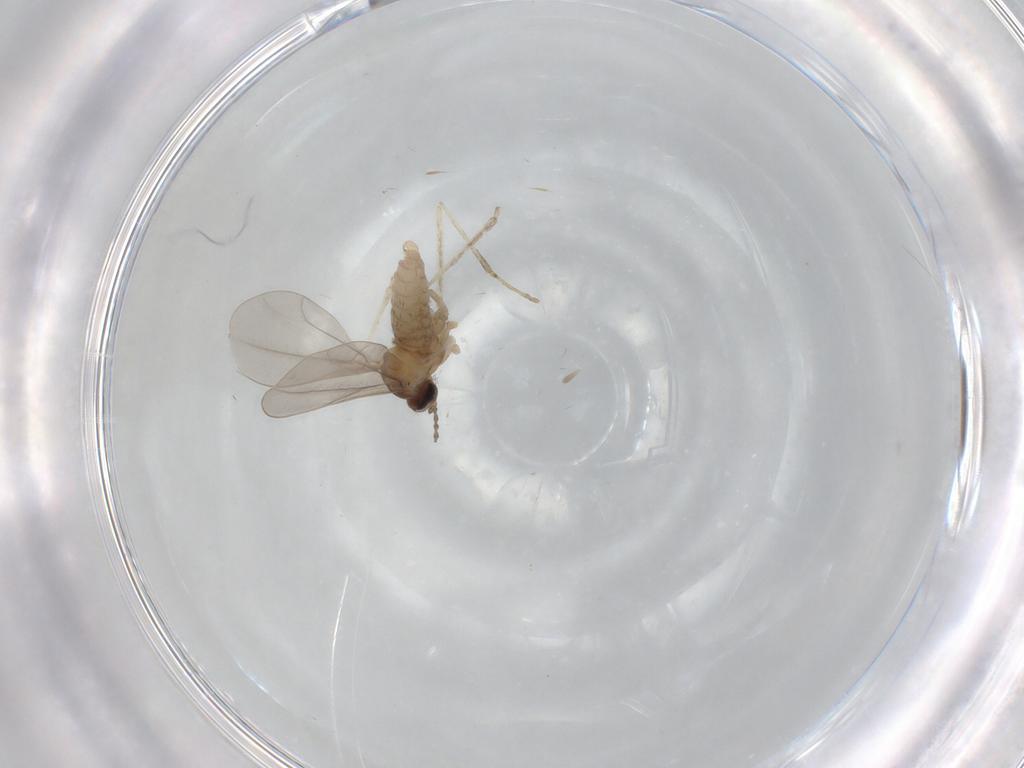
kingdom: Animalia
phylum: Arthropoda
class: Insecta
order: Diptera
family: Cecidomyiidae
